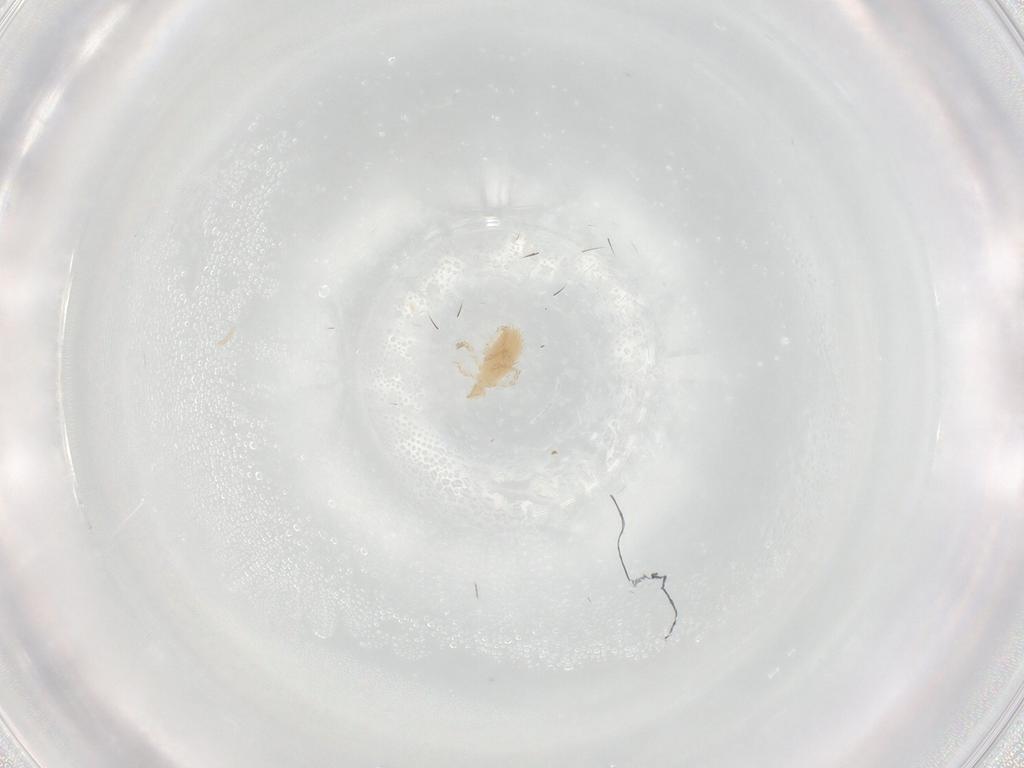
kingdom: Animalia
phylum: Arthropoda
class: Arachnida
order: Trombidiformes
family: Erythraeidae
